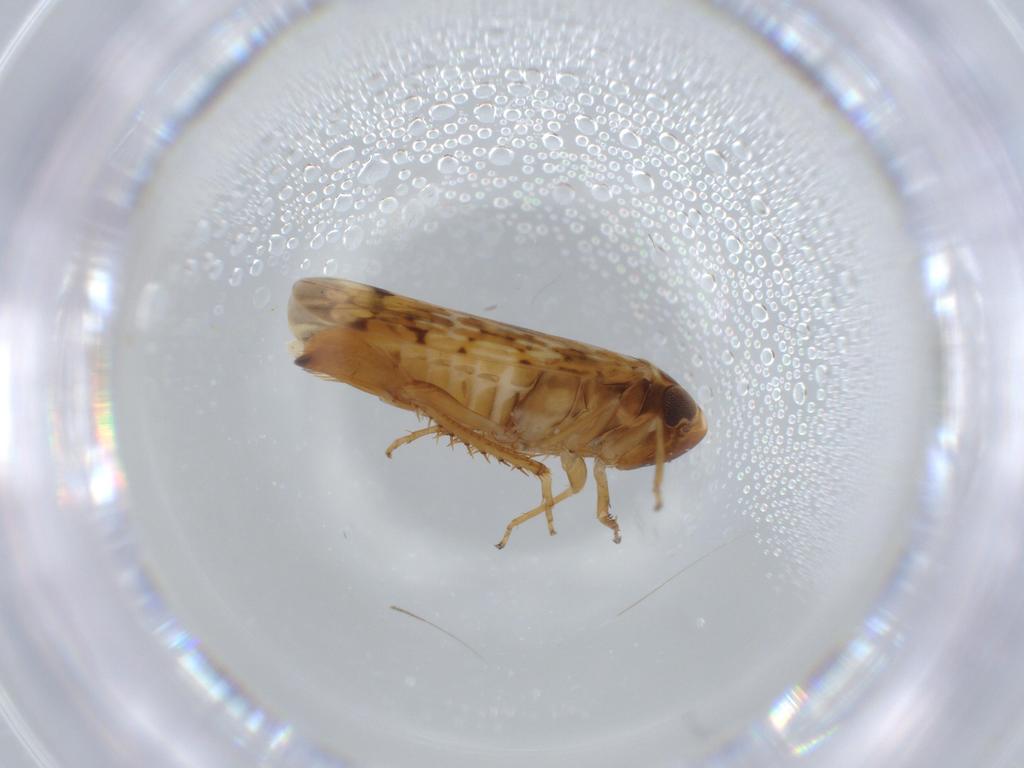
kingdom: Animalia
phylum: Arthropoda
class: Insecta
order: Hemiptera
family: Cicadellidae
